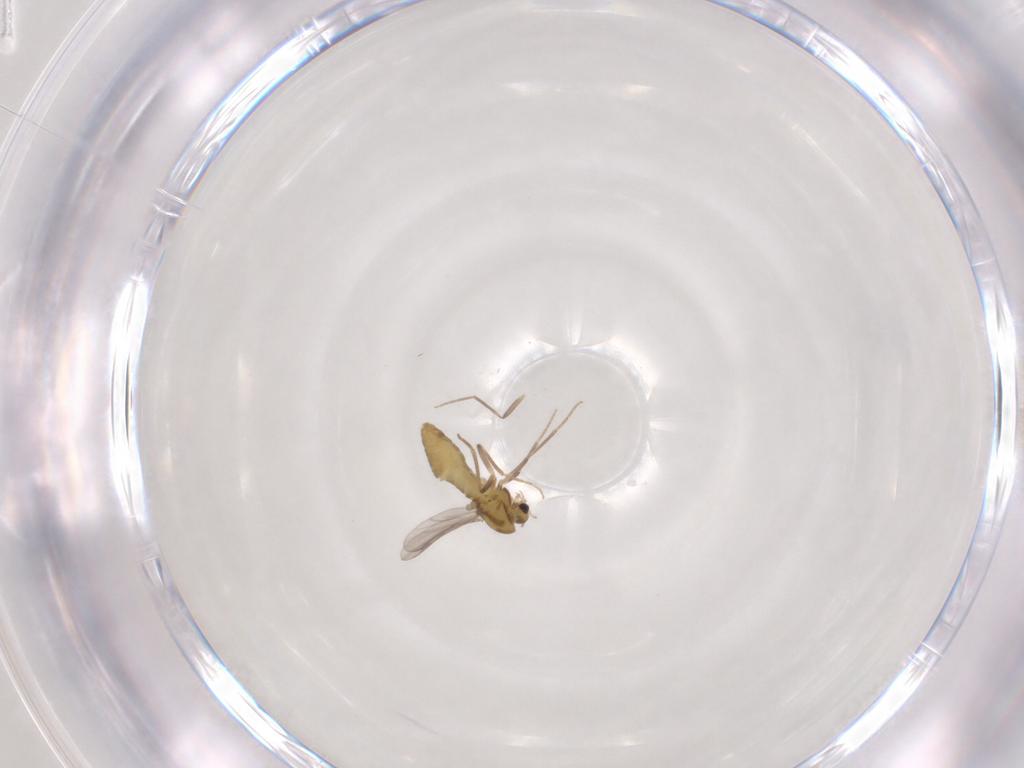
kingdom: Animalia
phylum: Arthropoda
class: Insecta
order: Diptera
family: Chironomidae
